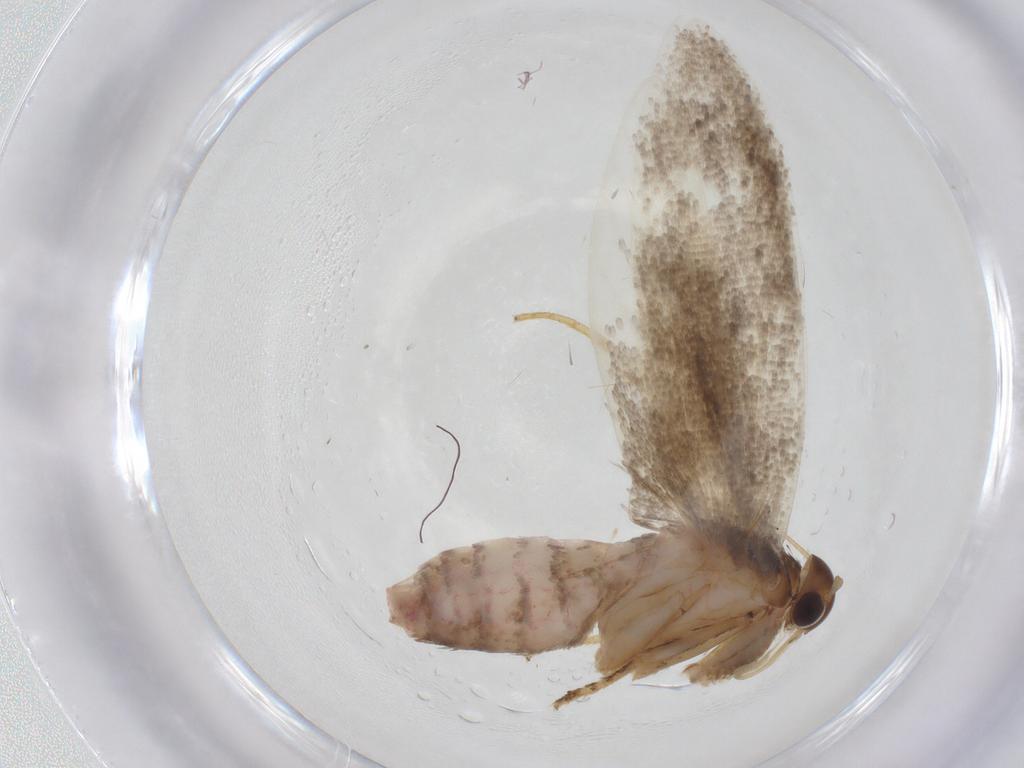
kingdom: Animalia
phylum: Arthropoda
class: Insecta
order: Lepidoptera
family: Oecophoridae
